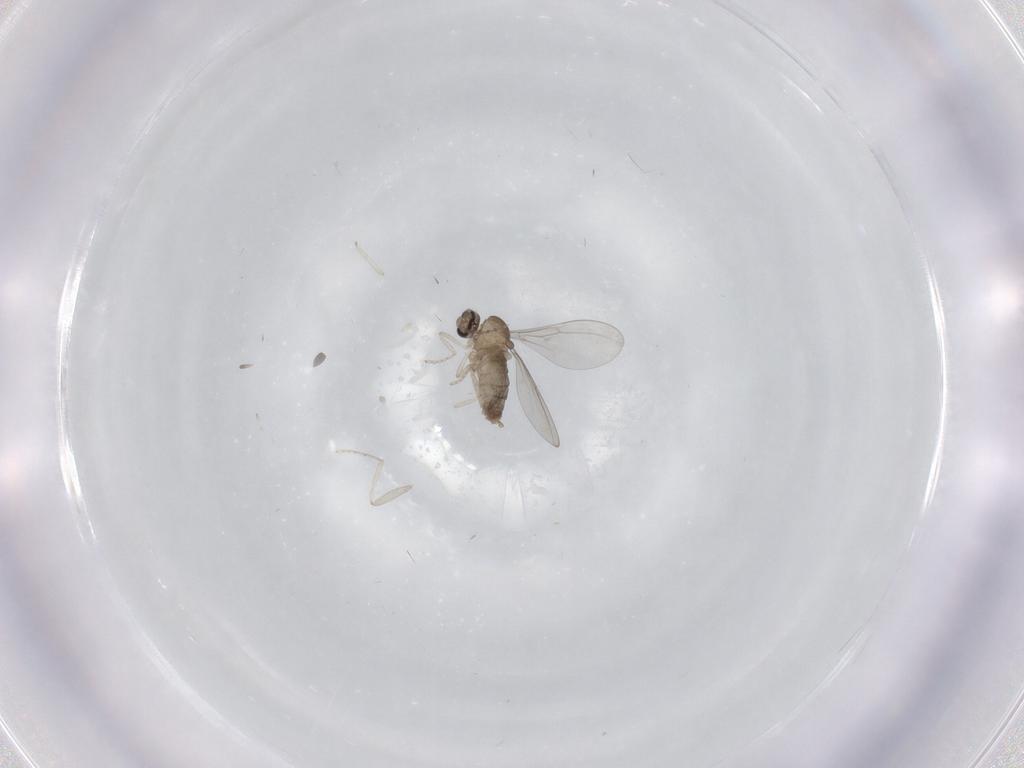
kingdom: Animalia
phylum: Arthropoda
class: Insecta
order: Diptera
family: Psychodidae
